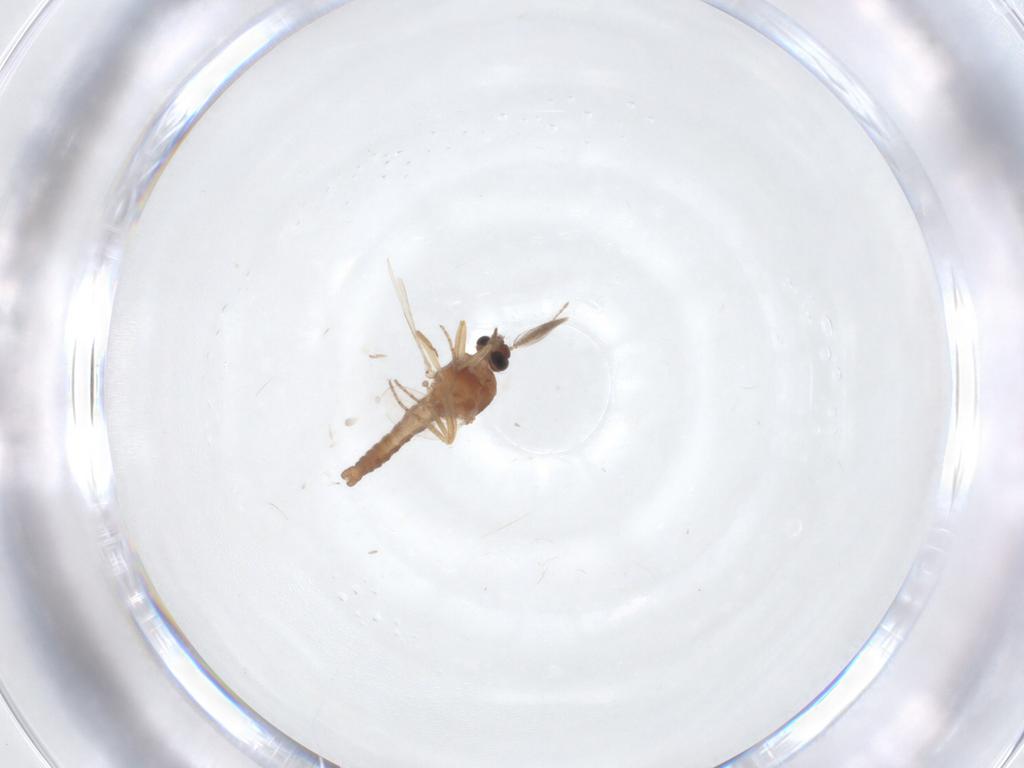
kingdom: Animalia
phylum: Arthropoda
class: Insecta
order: Diptera
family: Ceratopogonidae
